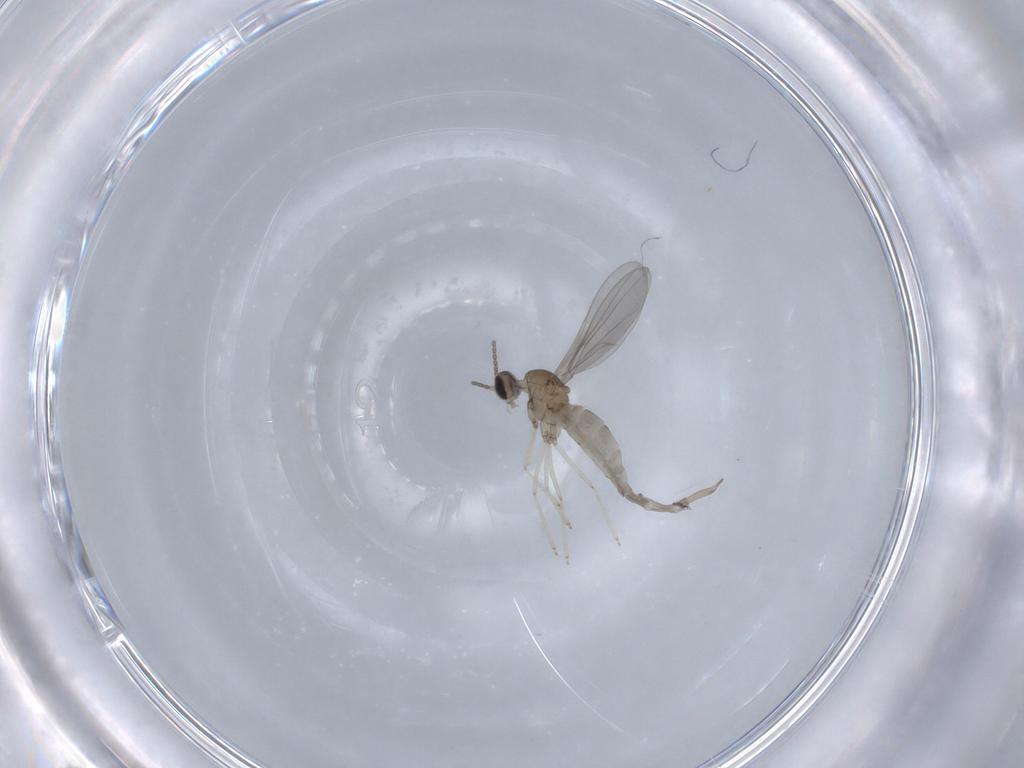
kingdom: Animalia
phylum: Arthropoda
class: Insecta
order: Diptera
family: Cecidomyiidae
